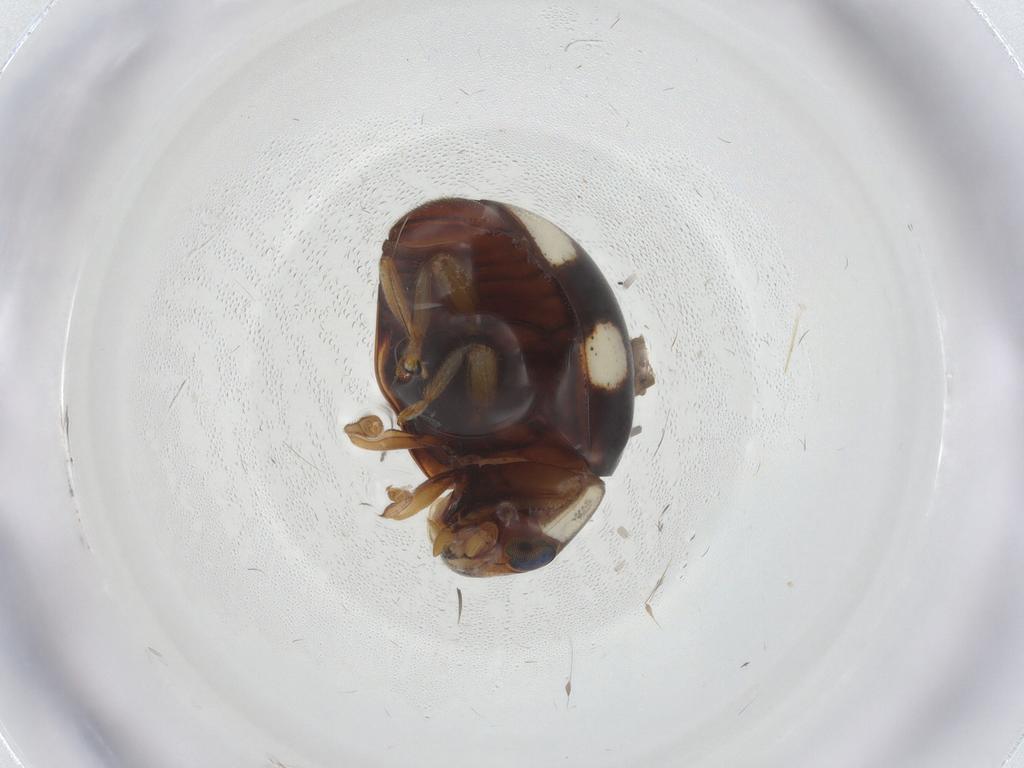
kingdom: Animalia
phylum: Arthropoda
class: Insecta
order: Coleoptera
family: Coccinellidae
